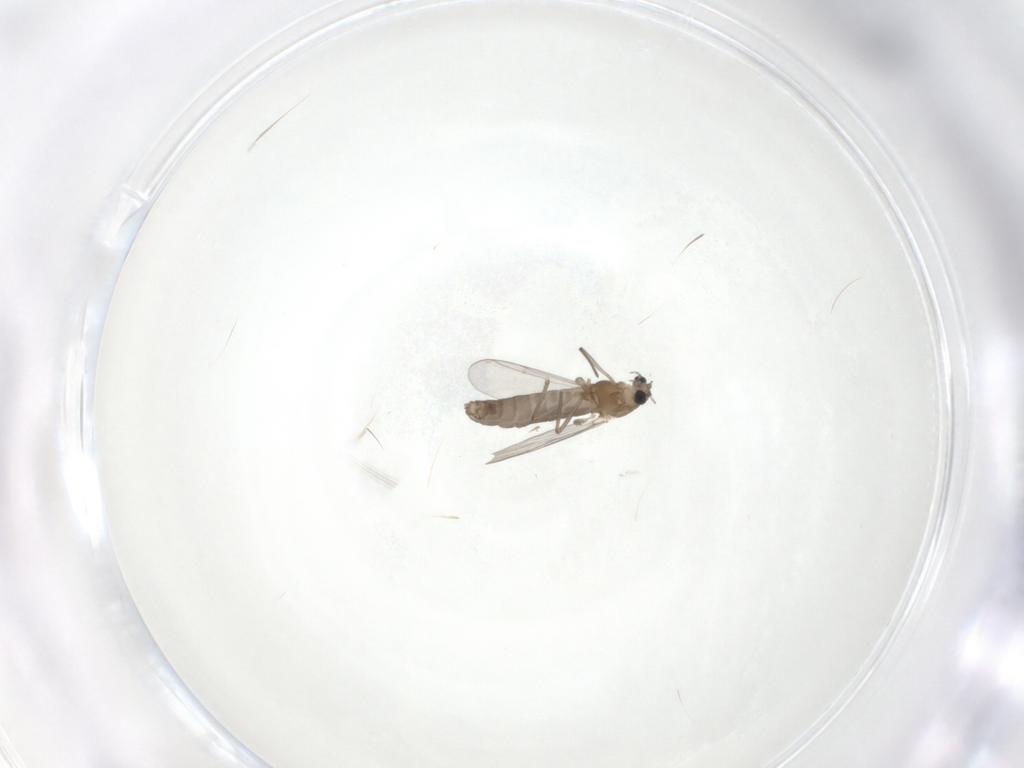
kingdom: Animalia
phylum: Arthropoda
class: Insecta
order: Diptera
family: Chironomidae
